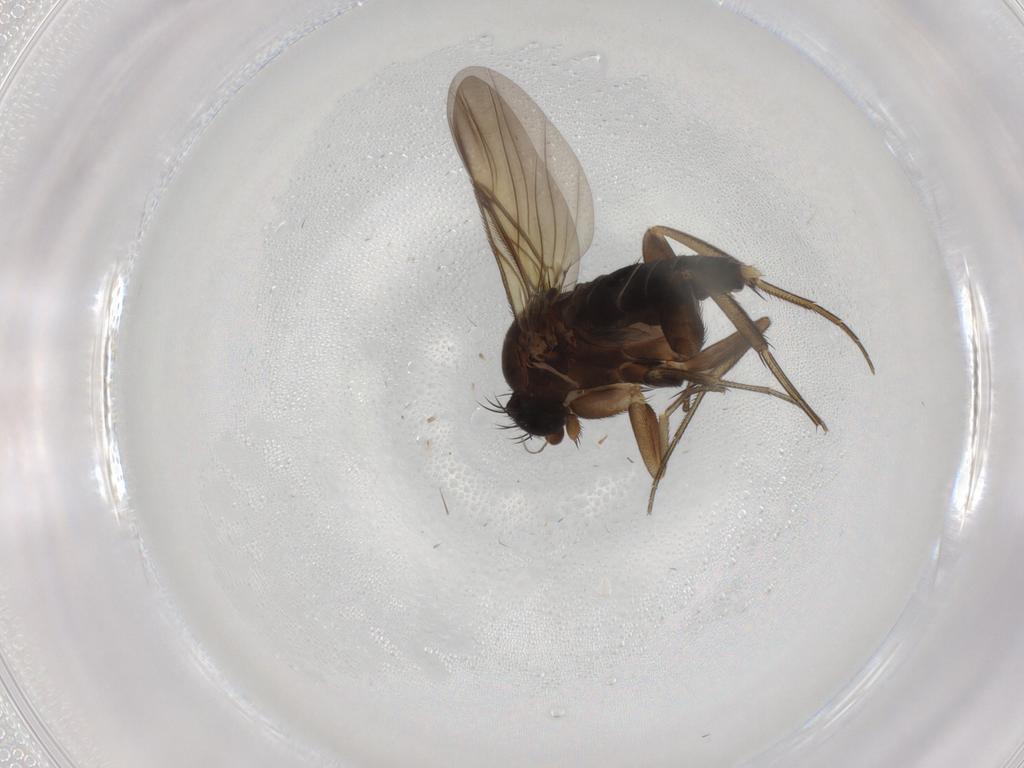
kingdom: Animalia
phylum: Arthropoda
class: Insecta
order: Diptera
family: Phoridae
